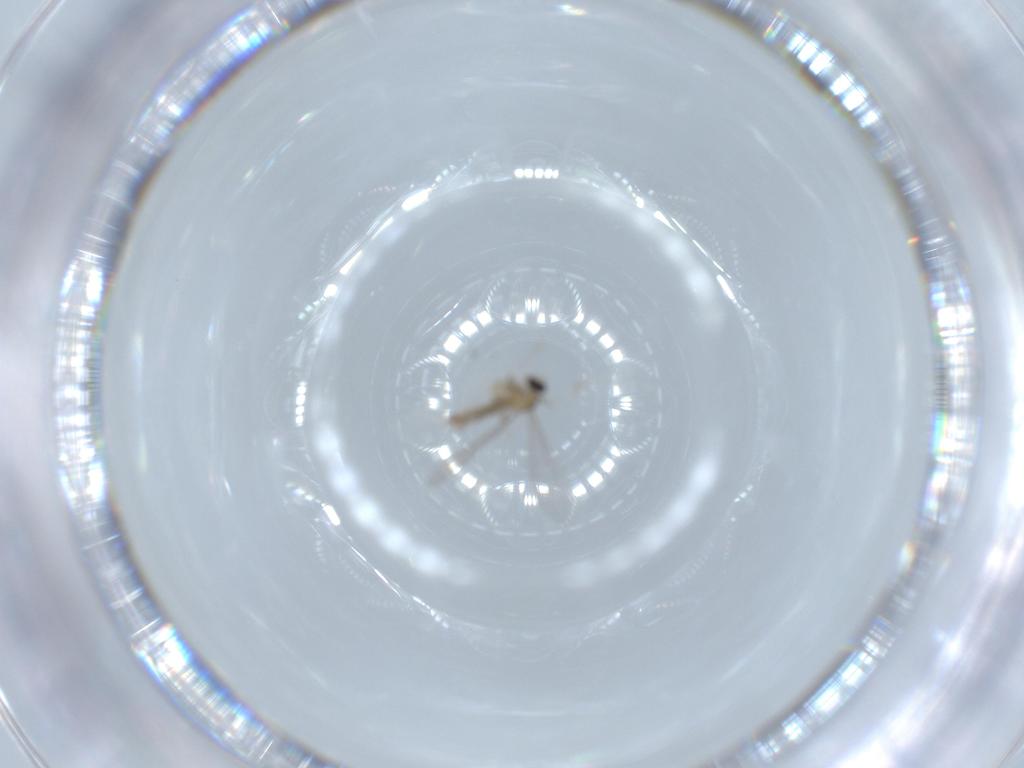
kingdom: Animalia
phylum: Arthropoda
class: Insecta
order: Diptera
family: Cecidomyiidae
